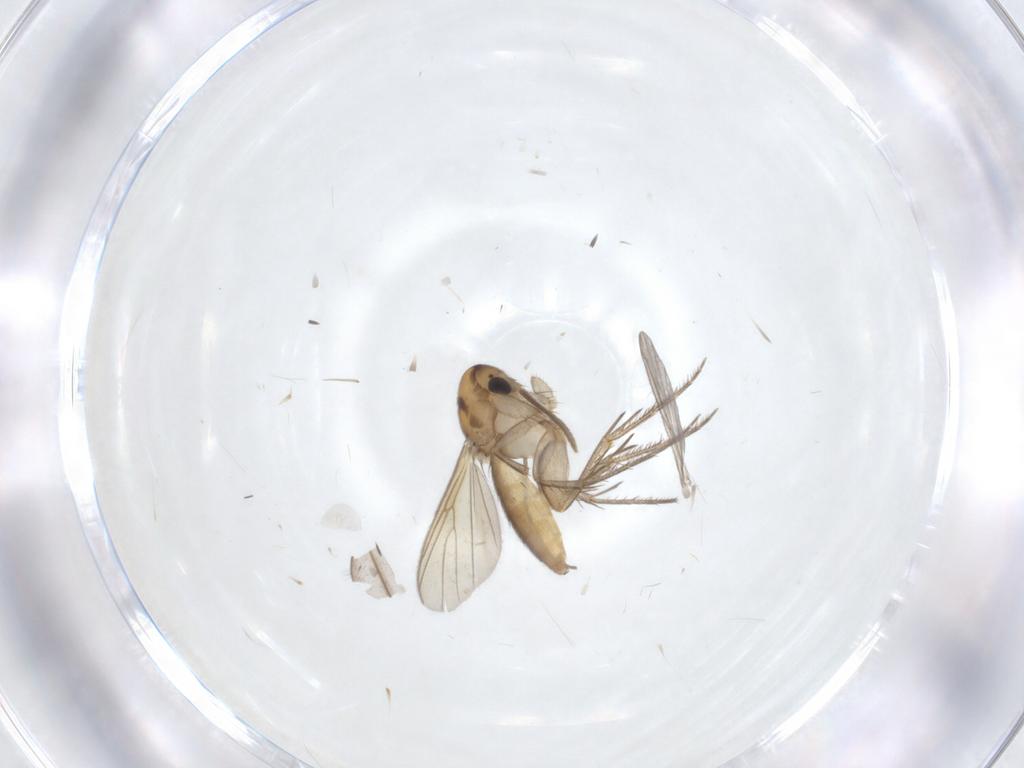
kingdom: Animalia
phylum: Arthropoda
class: Insecta
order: Diptera
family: Mycetophilidae
